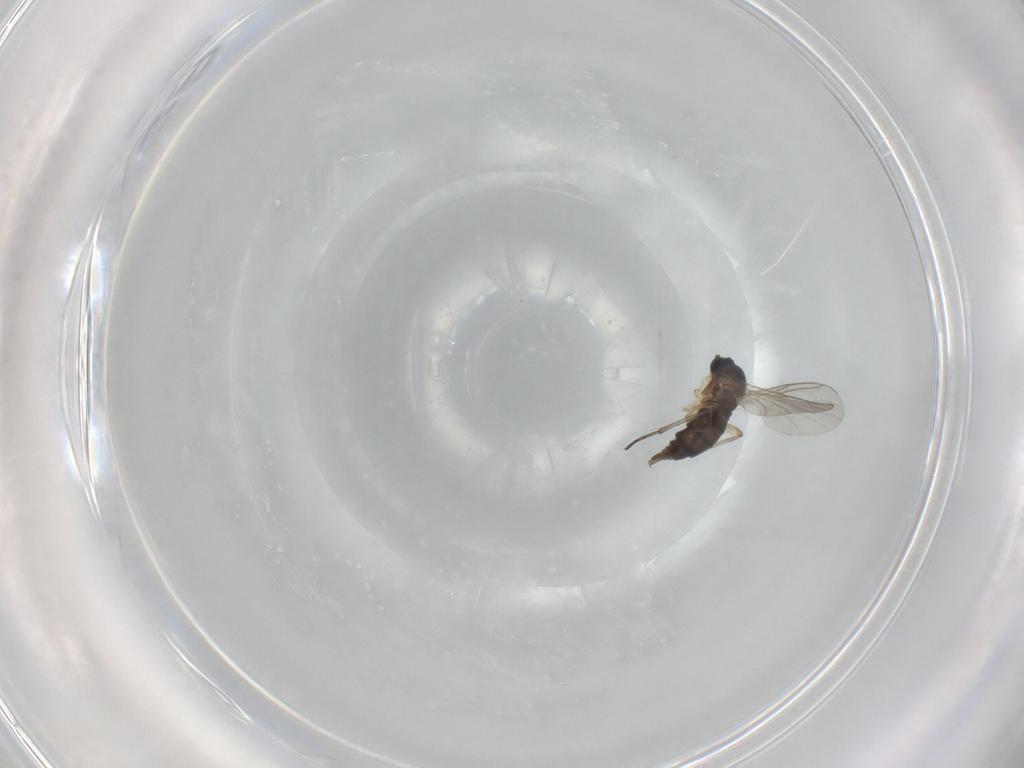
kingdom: Animalia
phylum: Arthropoda
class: Insecta
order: Diptera
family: Sciaridae
